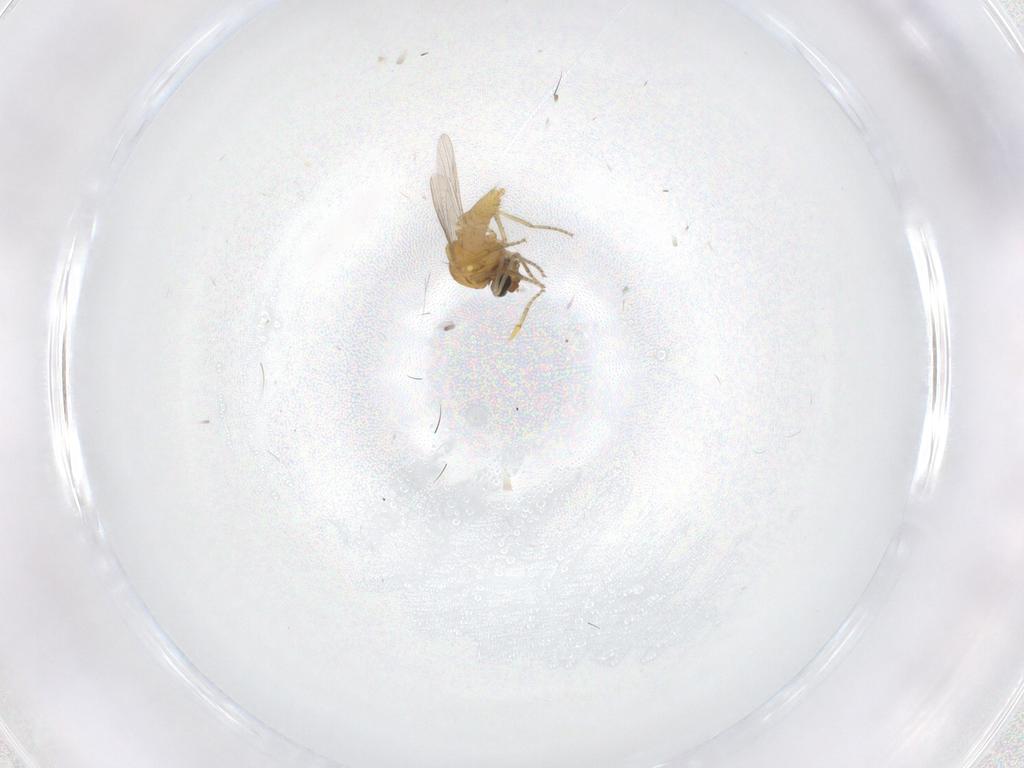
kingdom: Animalia
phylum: Arthropoda
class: Insecta
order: Diptera
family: Ceratopogonidae
